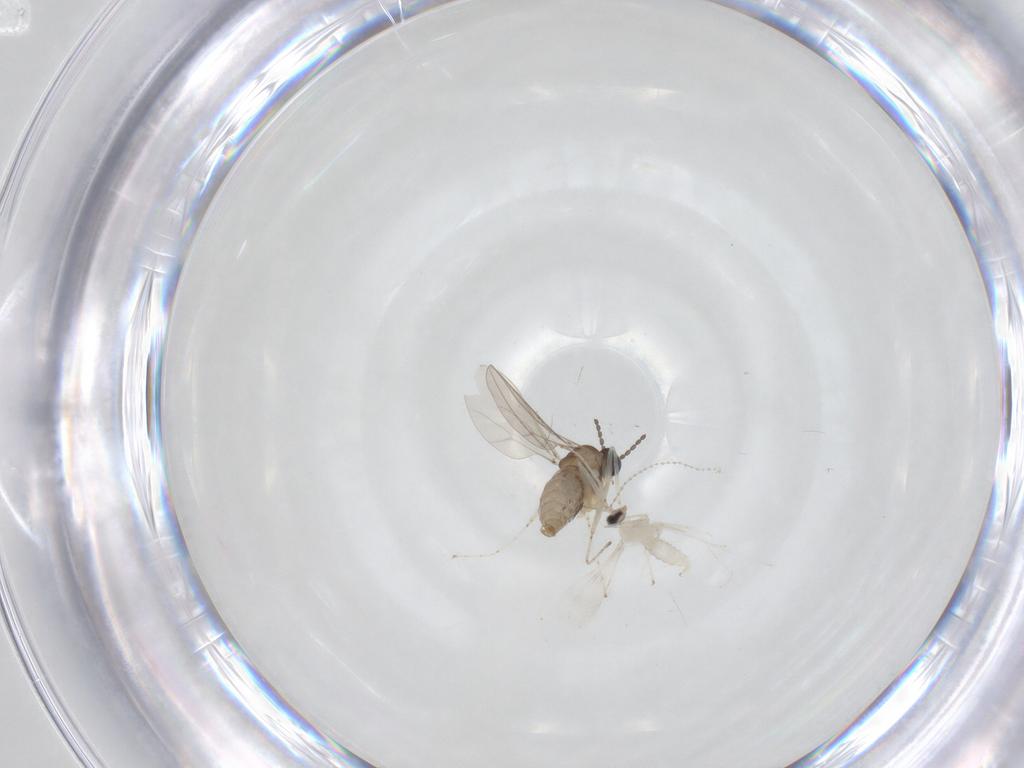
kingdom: Animalia
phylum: Arthropoda
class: Insecta
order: Diptera
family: Cecidomyiidae
